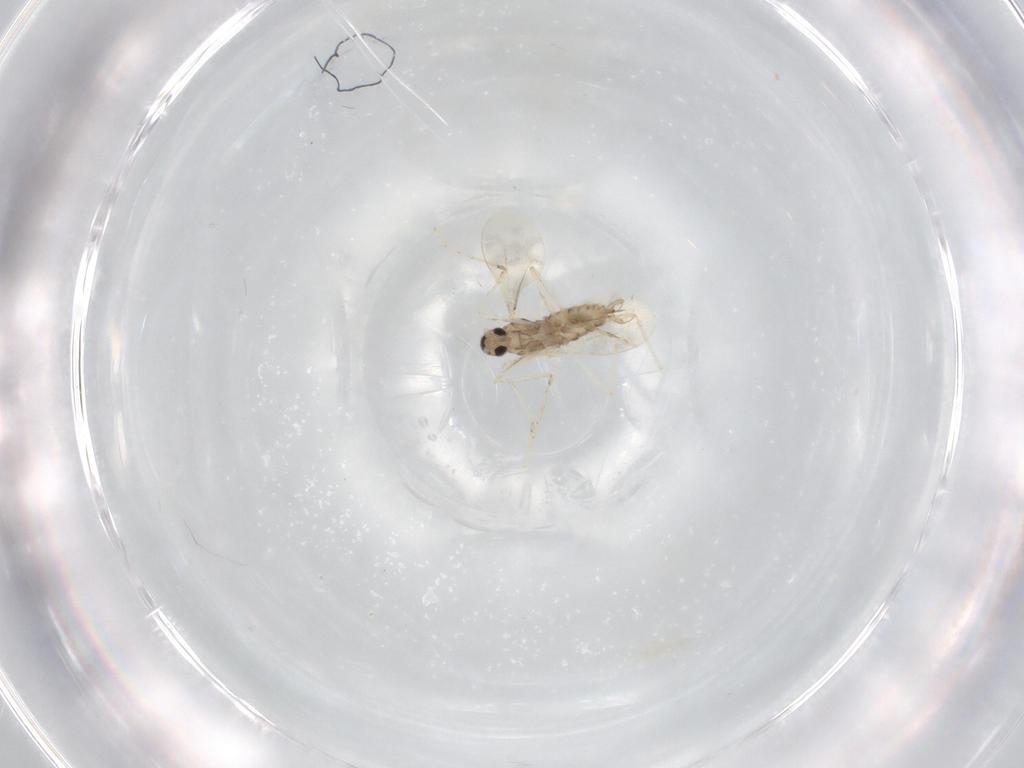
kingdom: Animalia
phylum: Arthropoda
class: Insecta
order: Diptera
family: Cecidomyiidae
